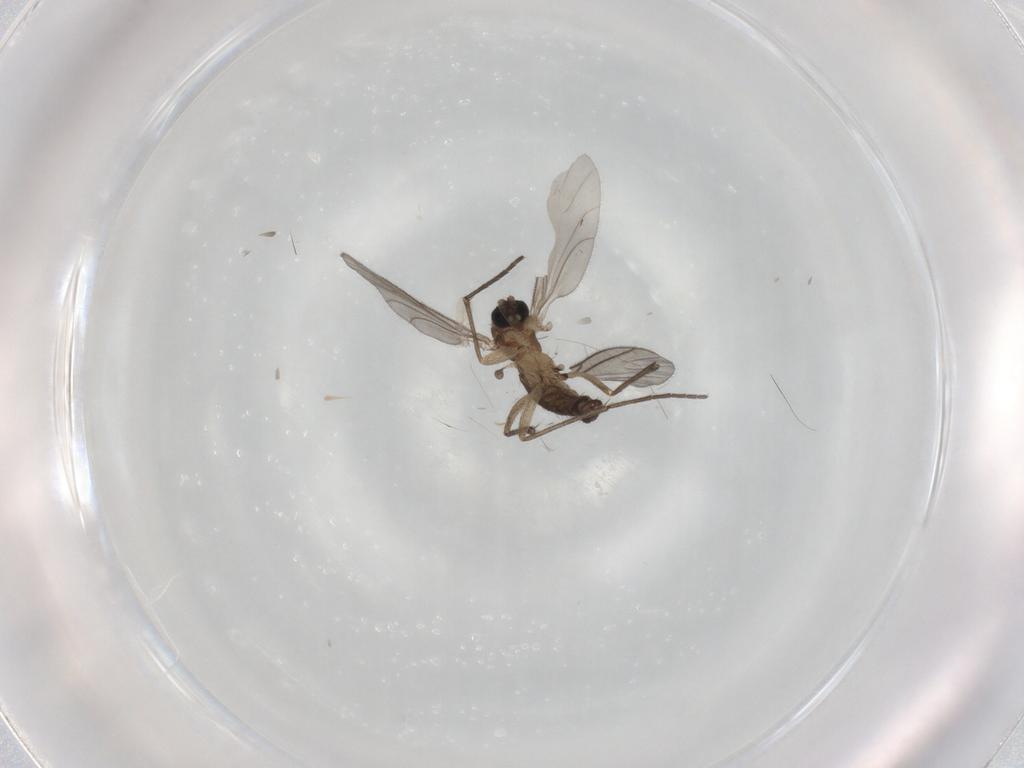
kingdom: Animalia
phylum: Arthropoda
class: Insecta
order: Diptera
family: Sciaridae
